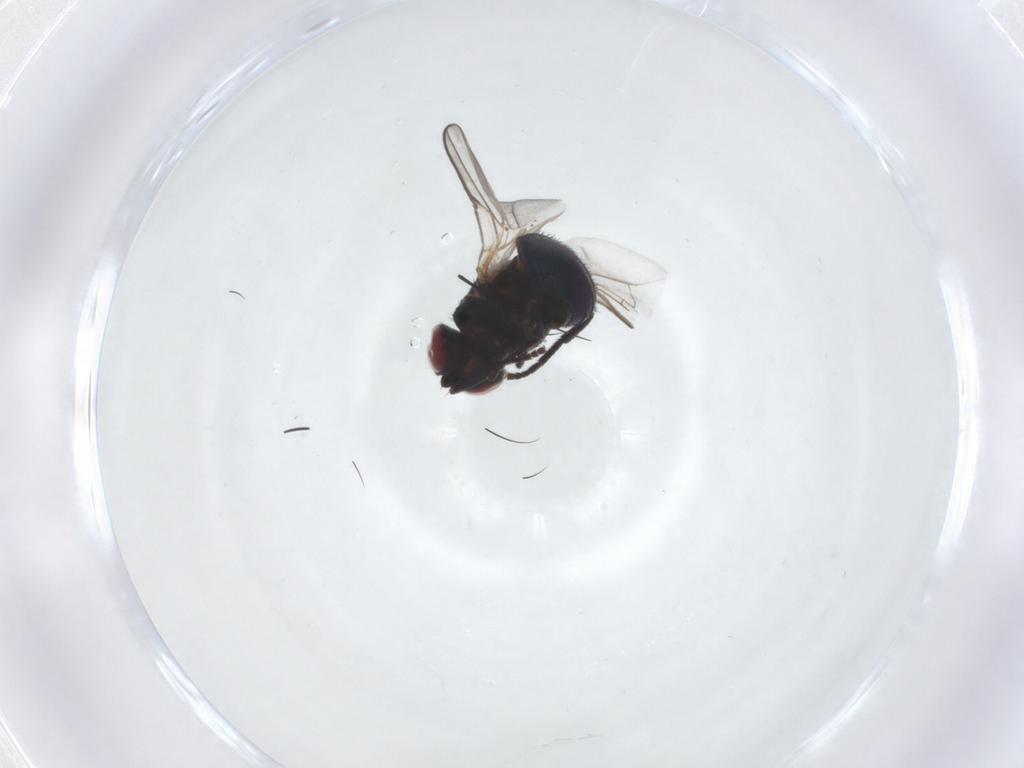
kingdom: Animalia
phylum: Arthropoda
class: Insecta
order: Diptera
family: Agromyzidae
